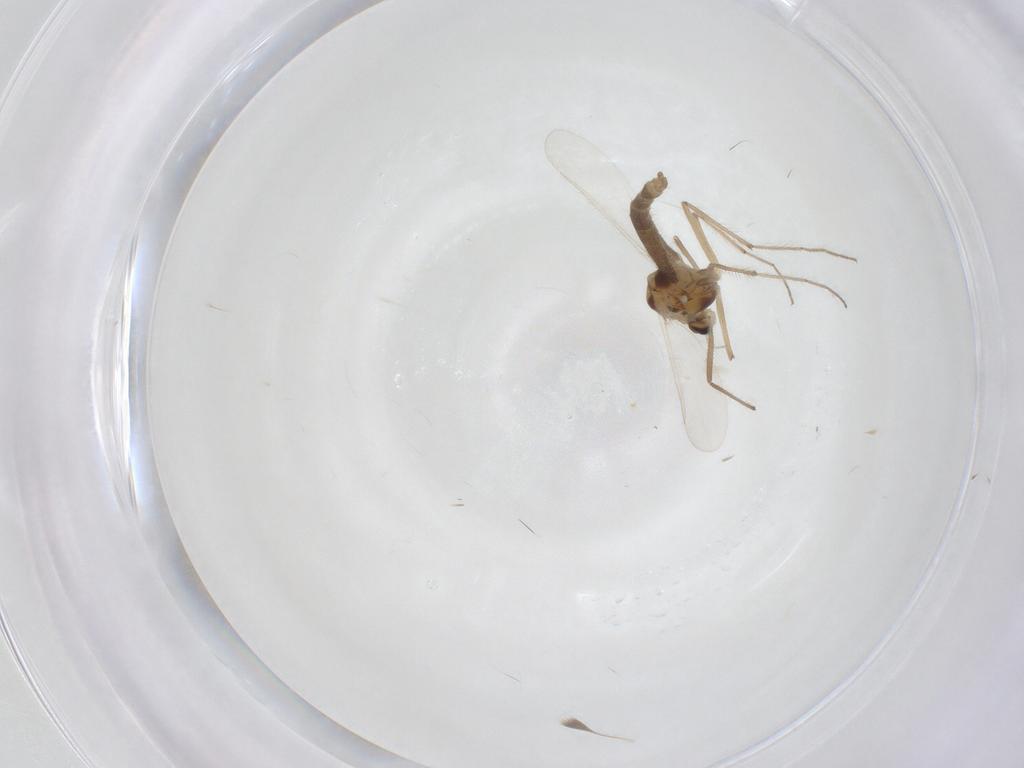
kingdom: Animalia
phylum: Arthropoda
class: Insecta
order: Diptera
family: Chironomidae
